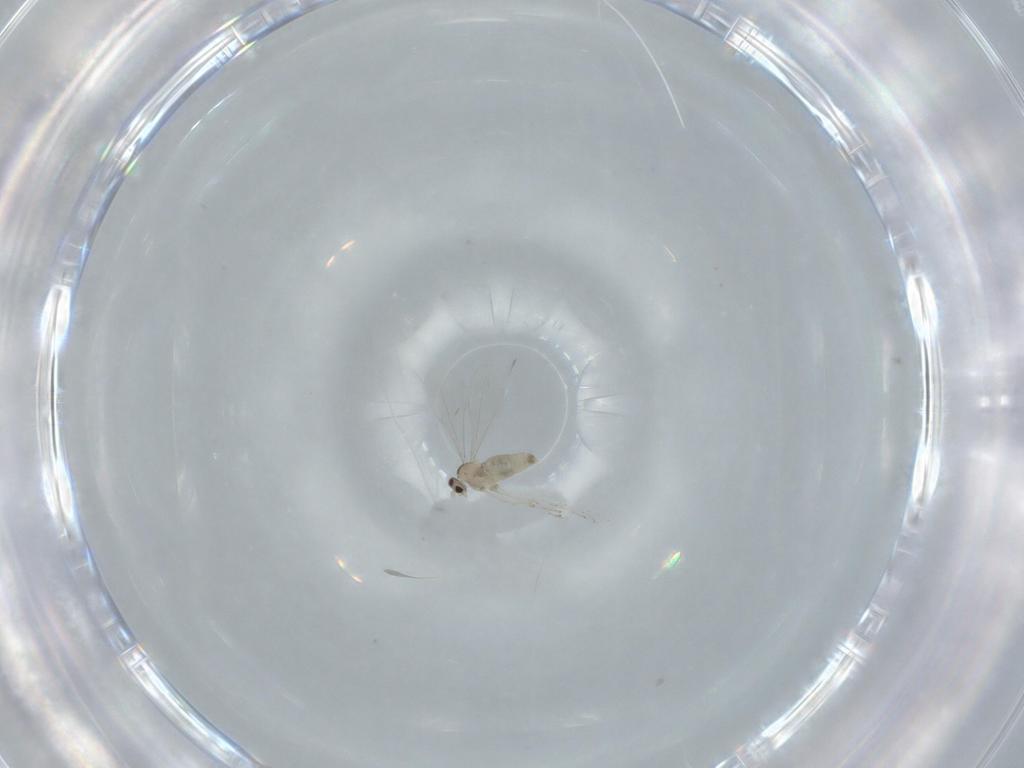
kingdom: Animalia
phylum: Arthropoda
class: Insecta
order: Diptera
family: Cecidomyiidae
